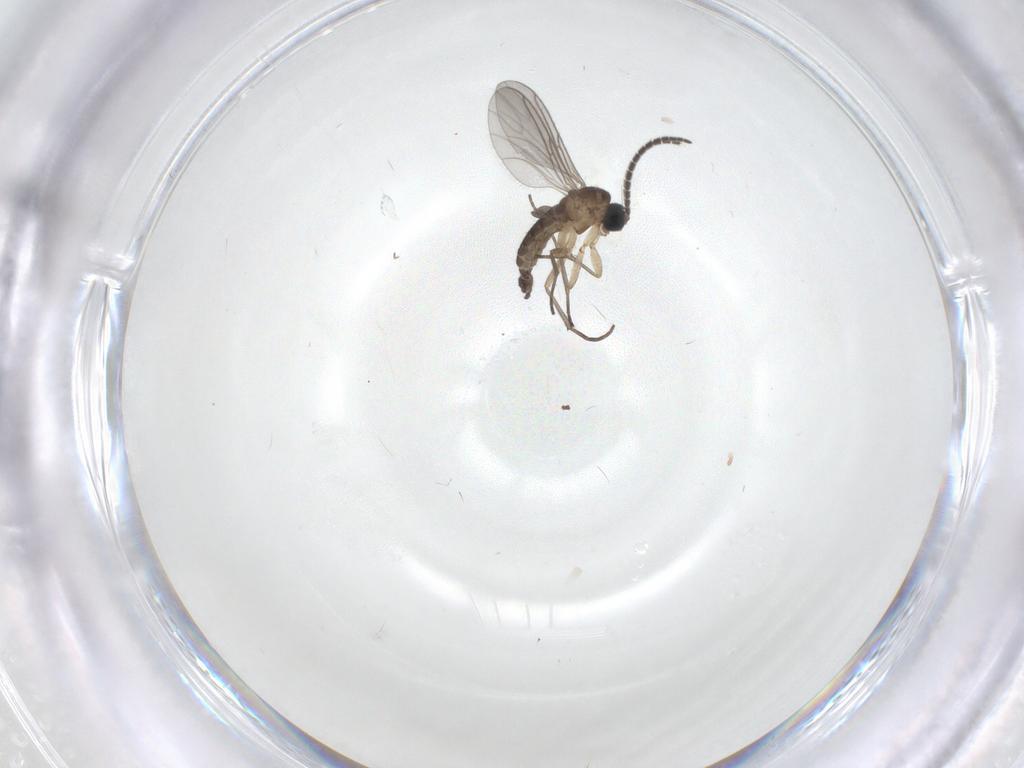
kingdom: Animalia
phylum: Arthropoda
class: Insecta
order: Diptera
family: Sciaridae
